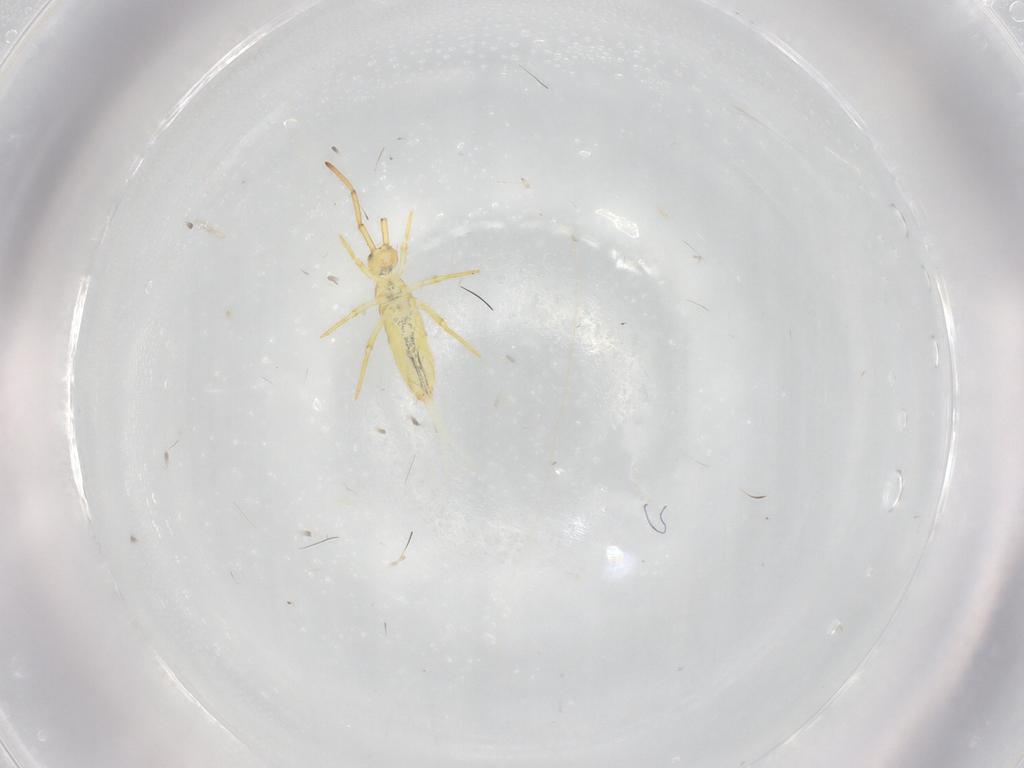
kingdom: Animalia
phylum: Arthropoda
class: Collembola
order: Entomobryomorpha
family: Paronellidae
